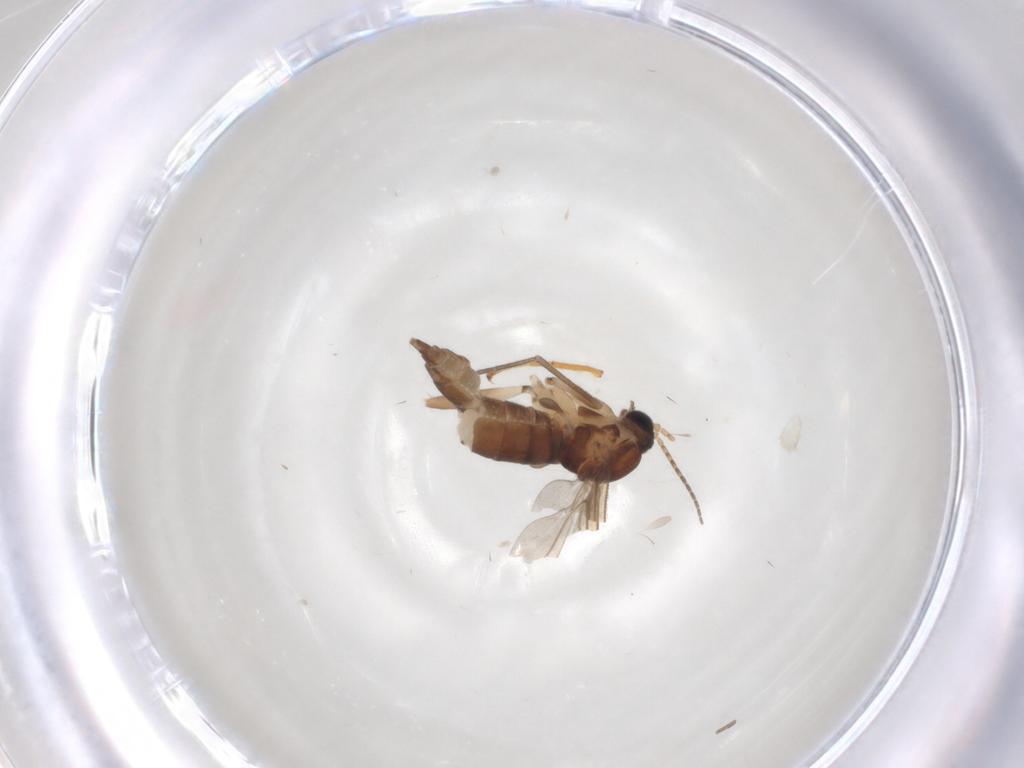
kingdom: Animalia
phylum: Arthropoda
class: Insecta
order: Diptera
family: Sciaridae
